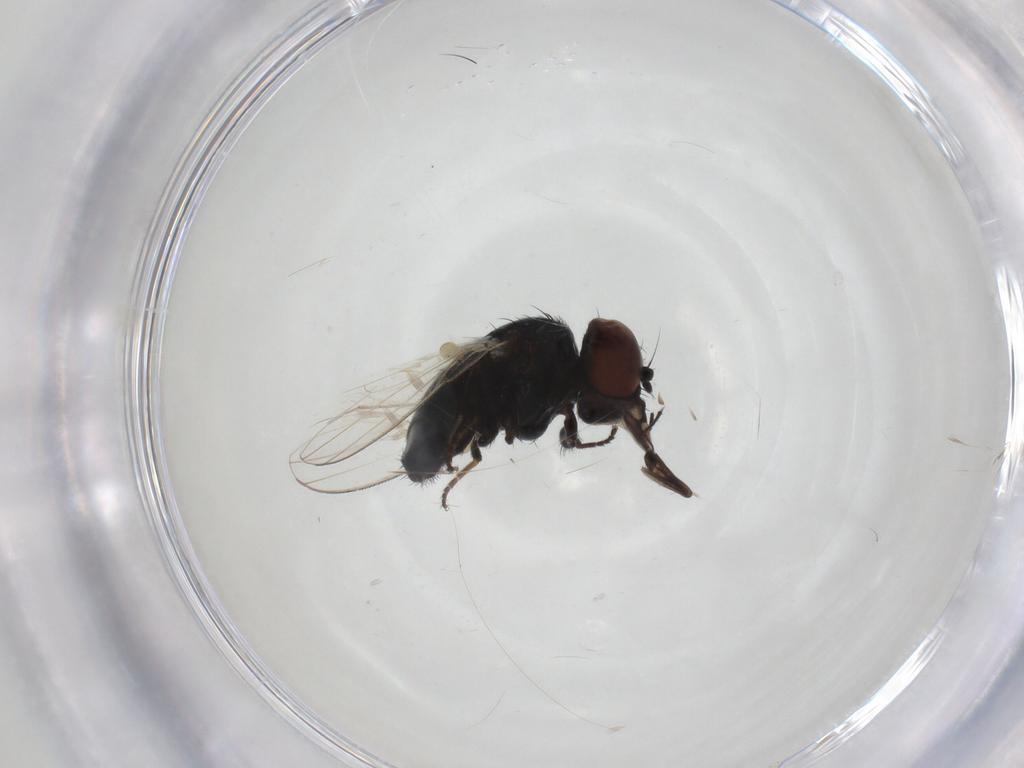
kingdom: Animalia
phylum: Arthropoda
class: Insecta
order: Diptera
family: Milichiidae
